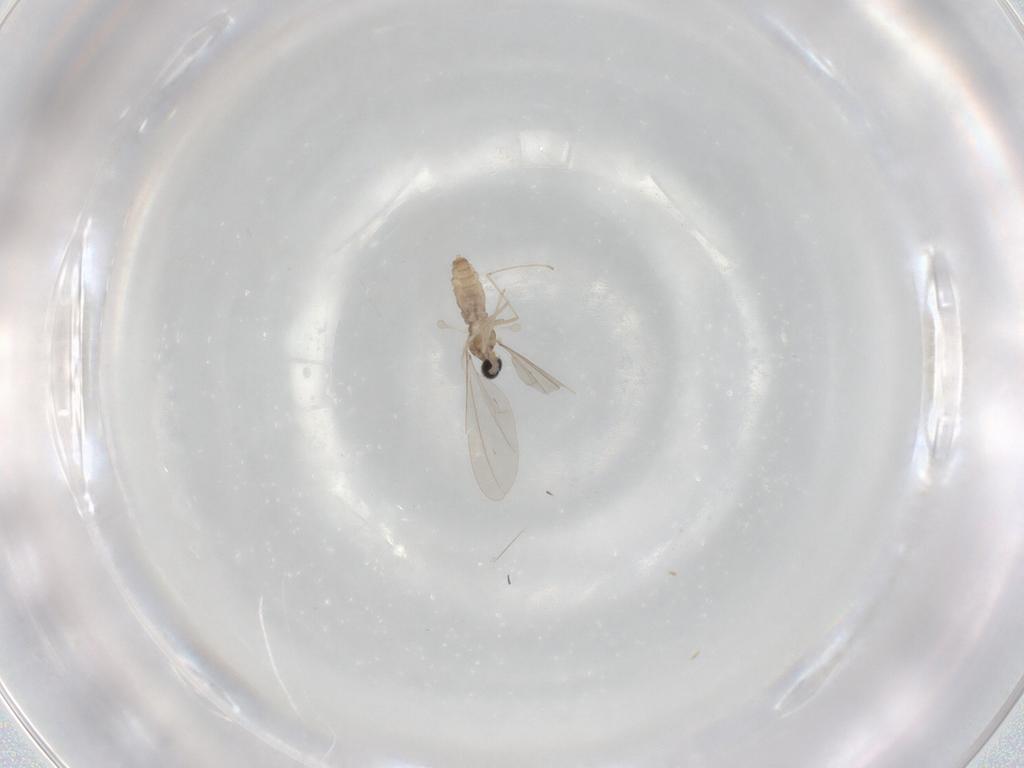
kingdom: Animalia
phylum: Arthropoda
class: Insecta
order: Diptera
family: Cecidomyiidae
